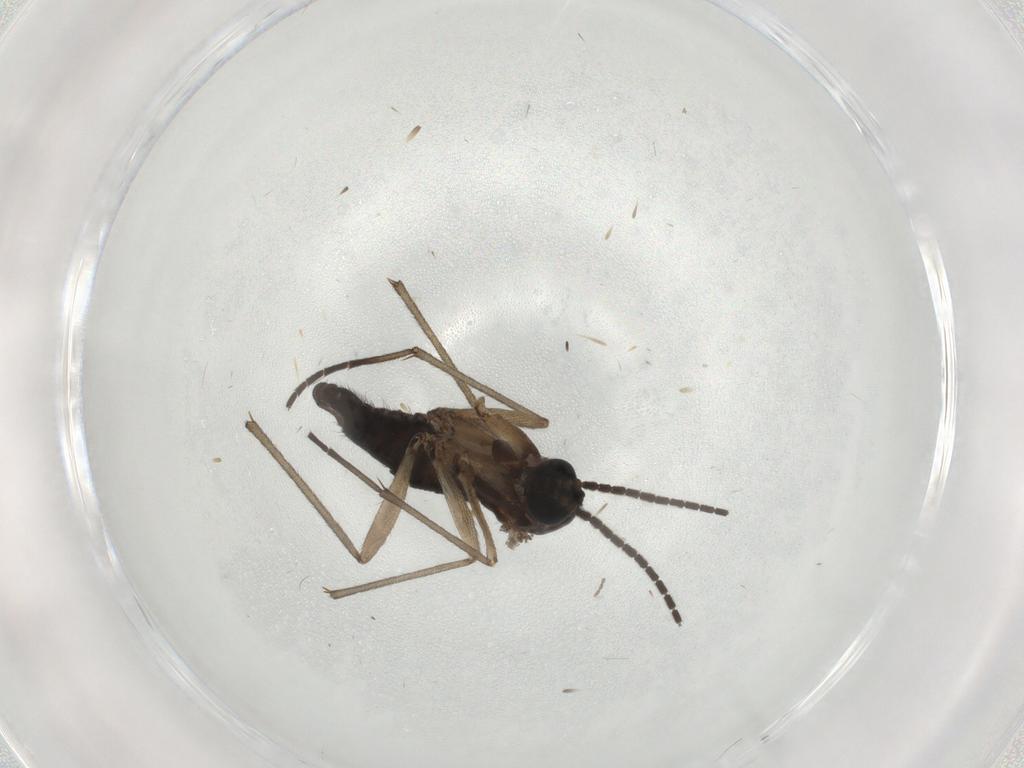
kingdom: Animalia
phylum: Arthropoda
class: Insecta
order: Diptera
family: Sciaridae
